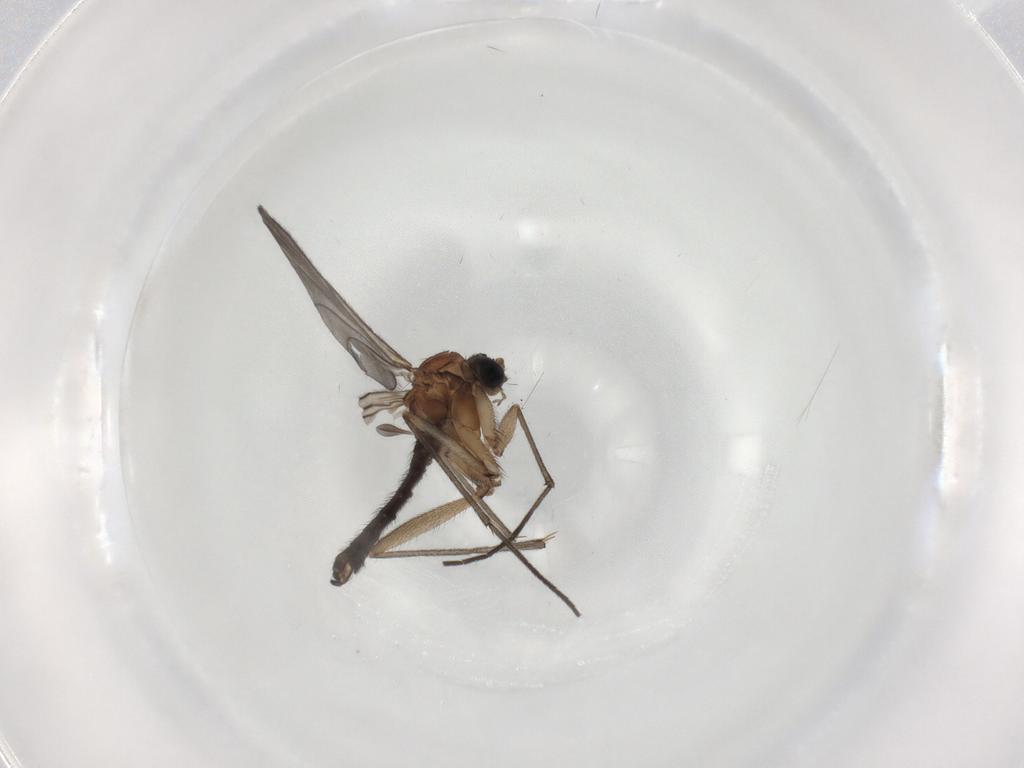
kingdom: Animalia
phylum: Arthropoda
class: Insecta
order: Diptera
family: Sciaridae
